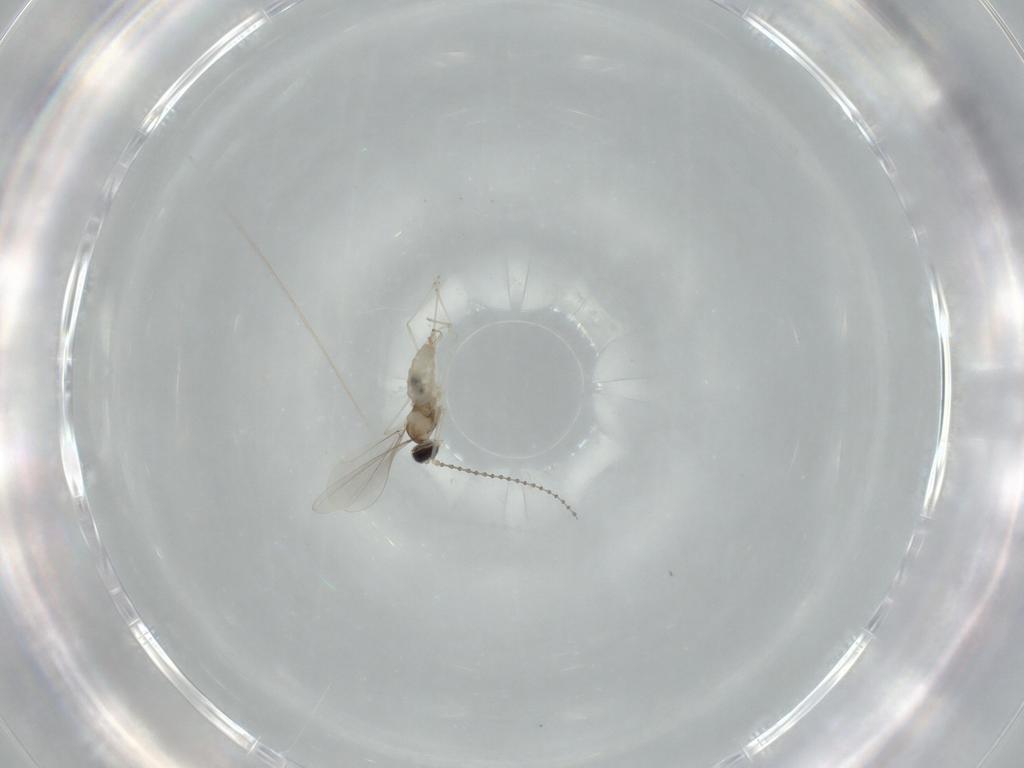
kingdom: Animalia
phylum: Arthropoda
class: Insecta
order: Diptera
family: Cecidomyiidae
